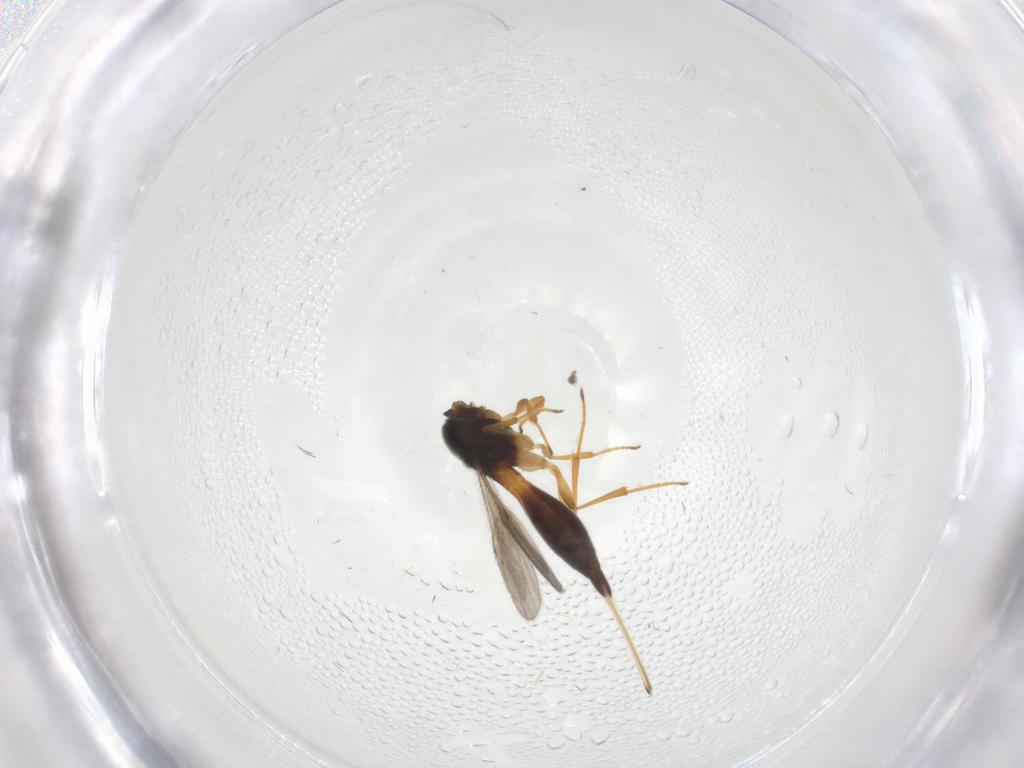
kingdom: Animalia
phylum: Arthropoda
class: Insecta
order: Hymenoptera
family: Scelionidae
